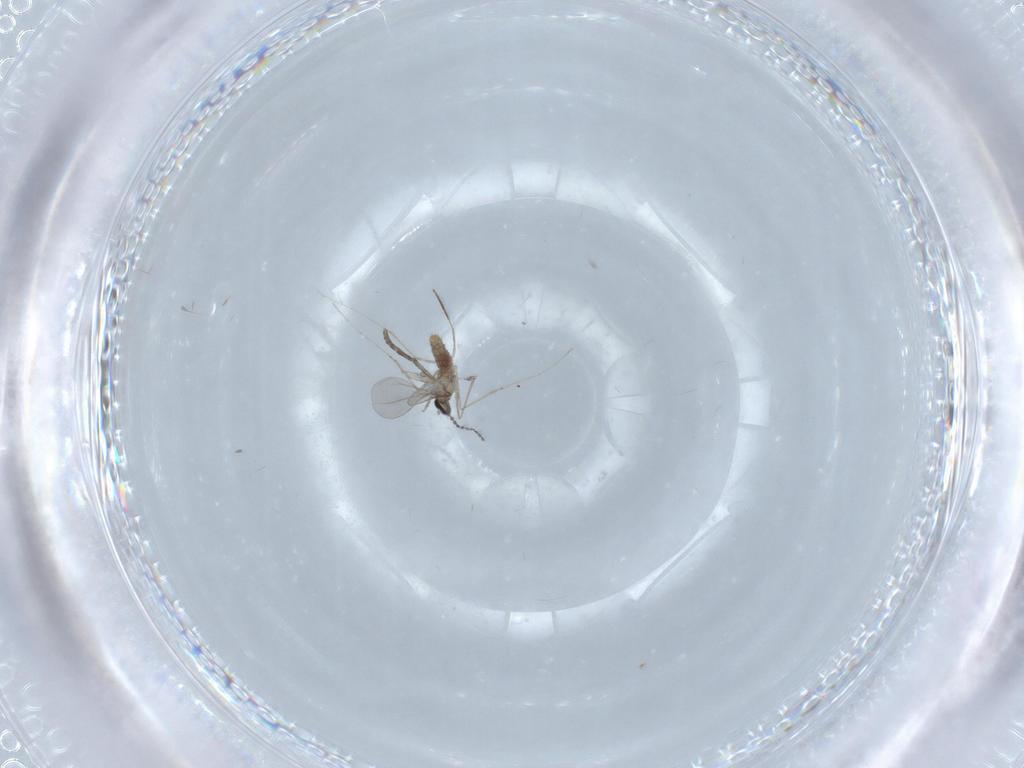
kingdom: Animalia
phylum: Arthropoda
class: Insecta
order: Diptera
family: Cecidomyiidae
